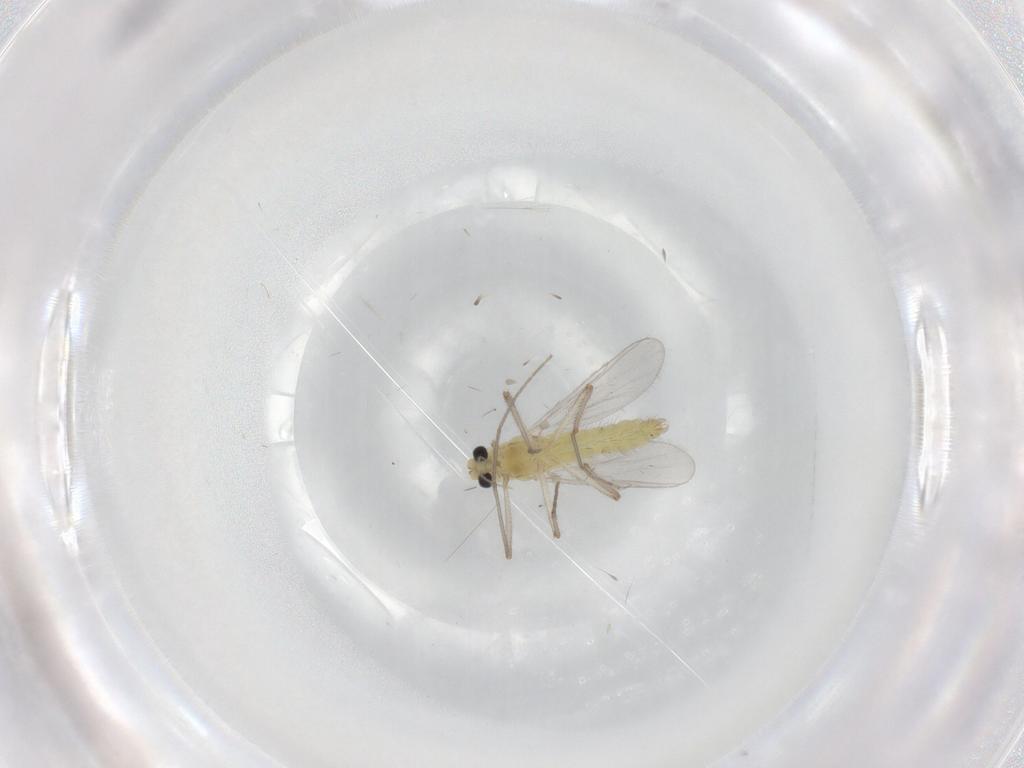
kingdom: Animalia
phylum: Arthropoda
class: Insecta
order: Diptera
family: Chironomidae
